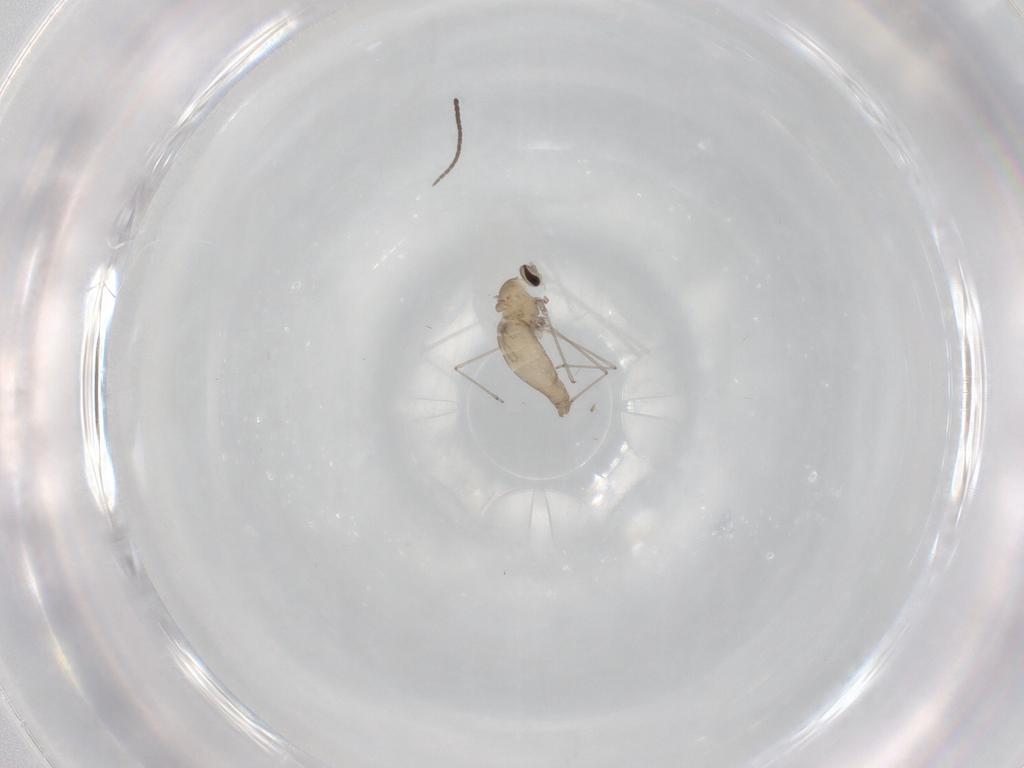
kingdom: Animalia
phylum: Arthropoda
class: Insecta
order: Diptera
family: Cecidomyiidae
